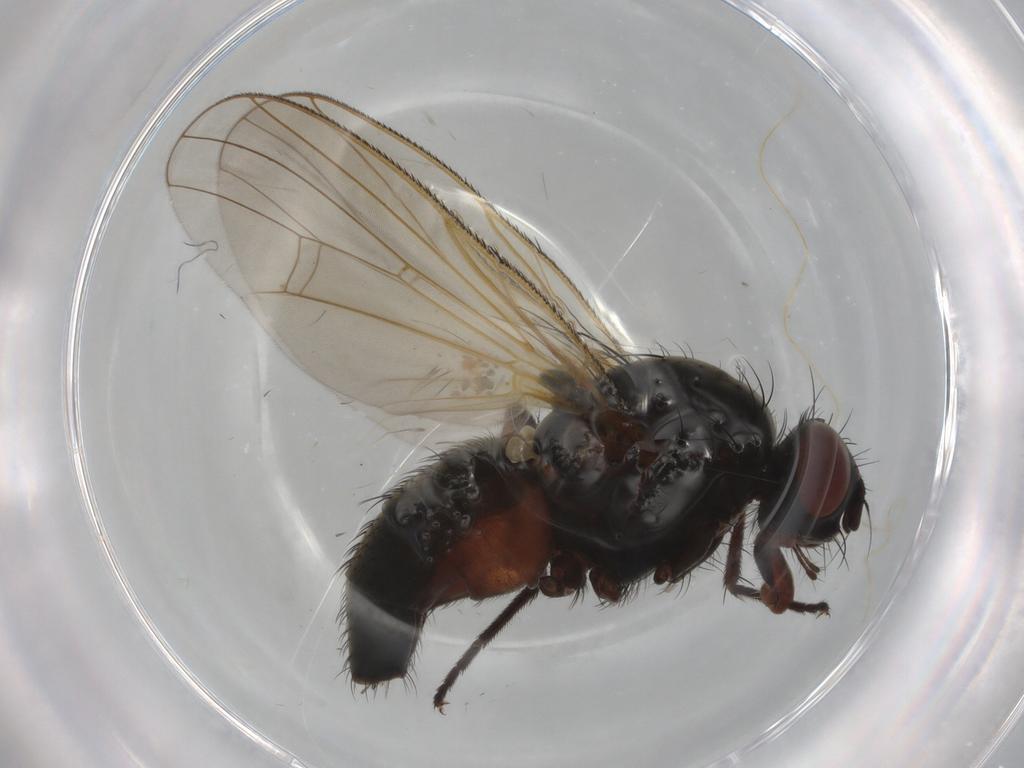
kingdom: Animalia
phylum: Arthropoda
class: Insecta
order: Diptera
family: Anthomyiidae
